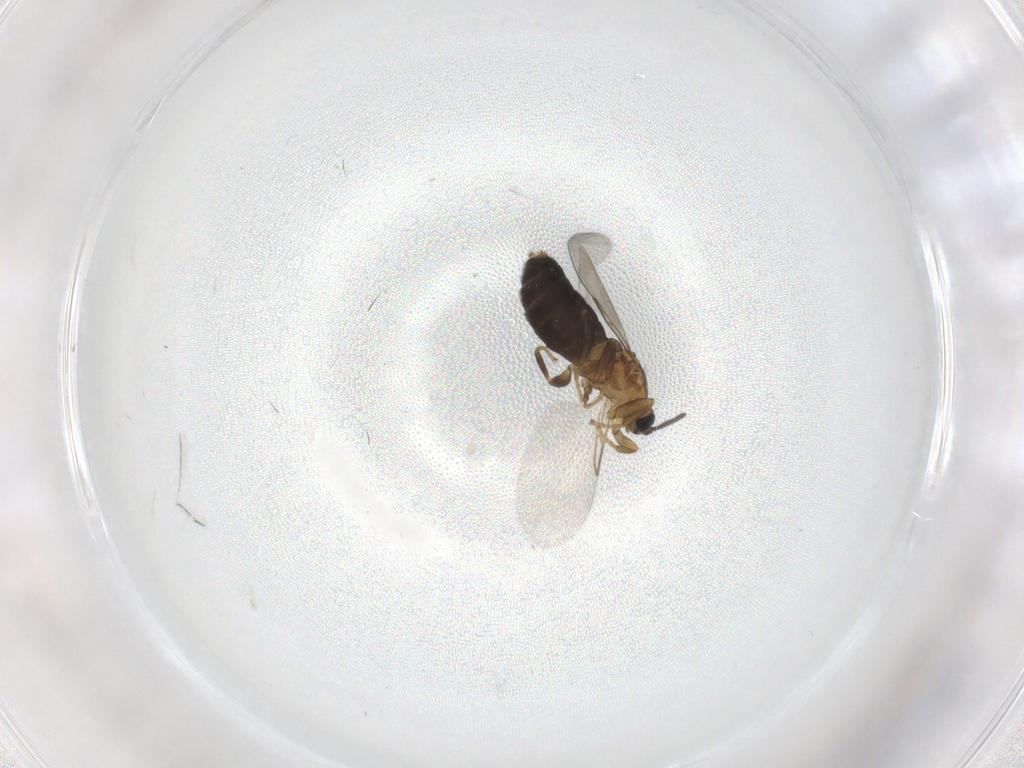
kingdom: Animalia
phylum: Arthropoda
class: Insecta
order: Diptera
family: Scatopsidae
